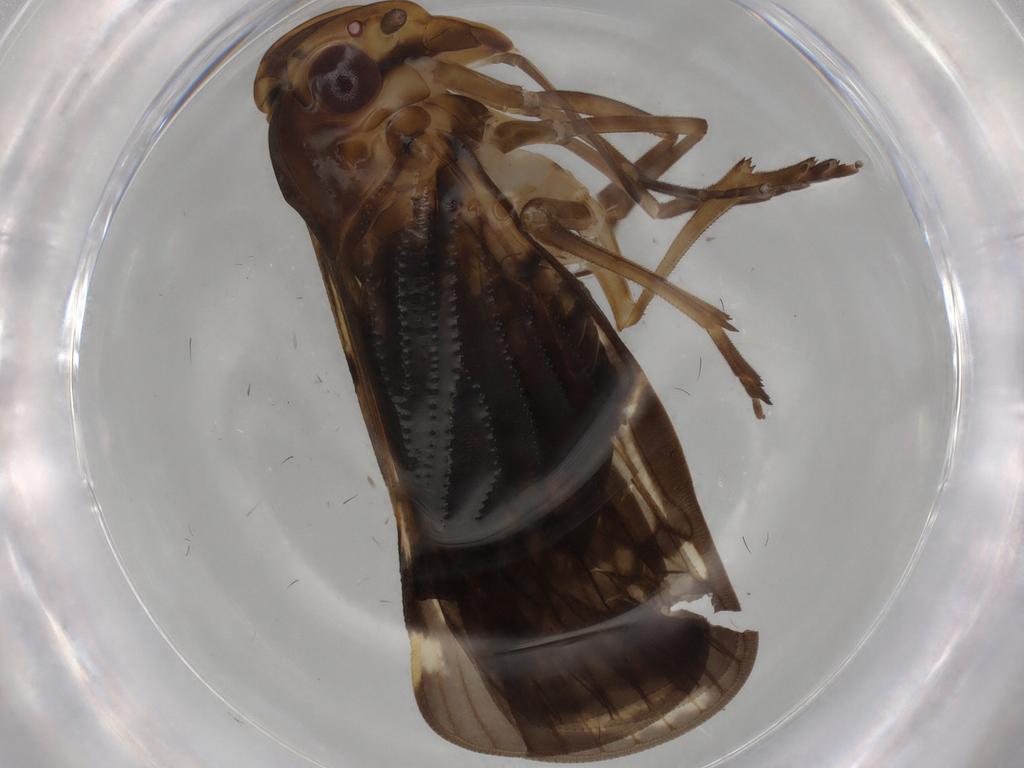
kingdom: Animalia
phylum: Arthropoda
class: Insecta
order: Hemiptera
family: Cixiidae
